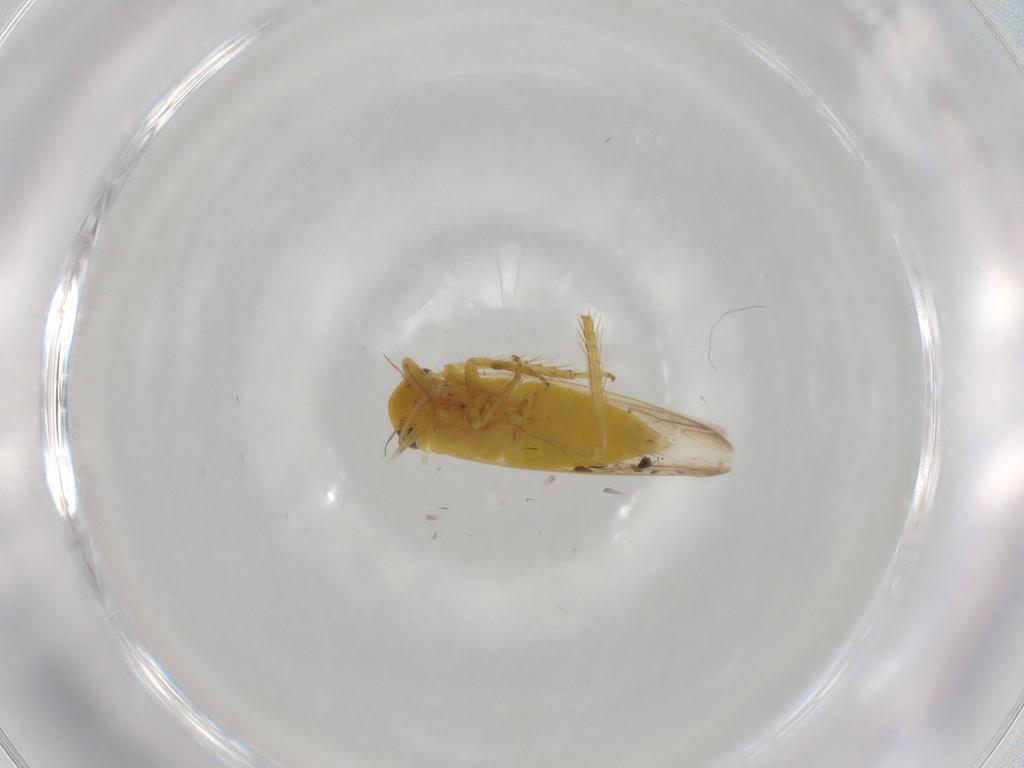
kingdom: Animalia
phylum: Arthropoda
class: Insecta
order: Hemiptera
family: Cicadellidae
